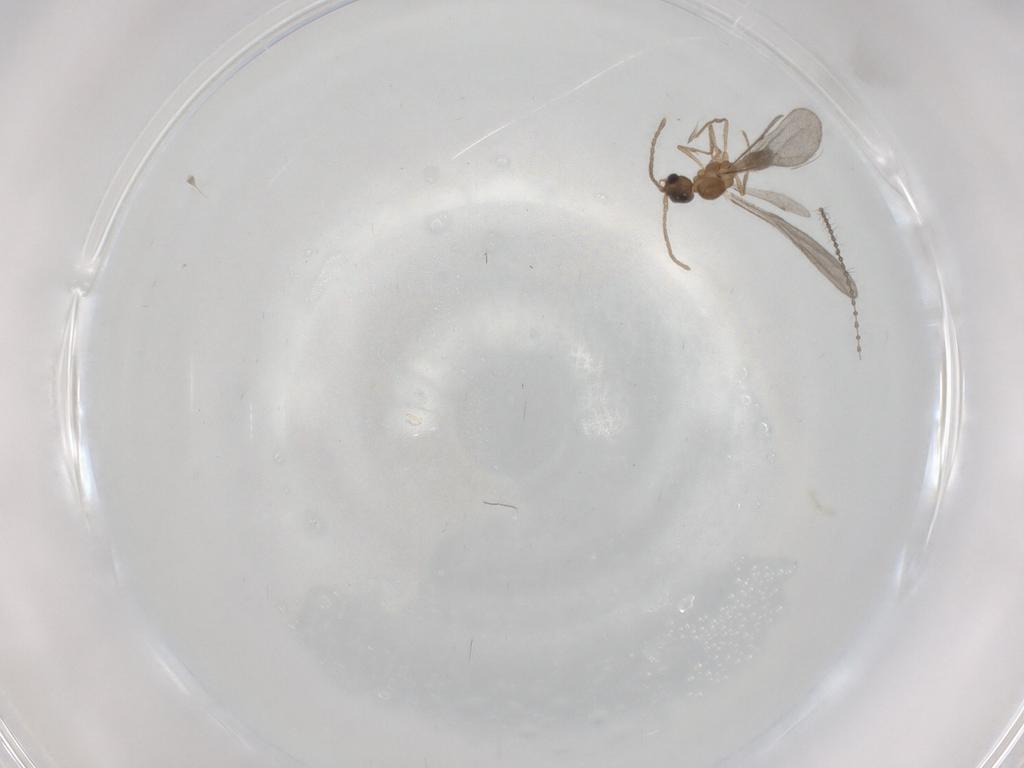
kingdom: Animalia
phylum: Arthropoda
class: Insecta
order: Hymenoptera
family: Formicidae
